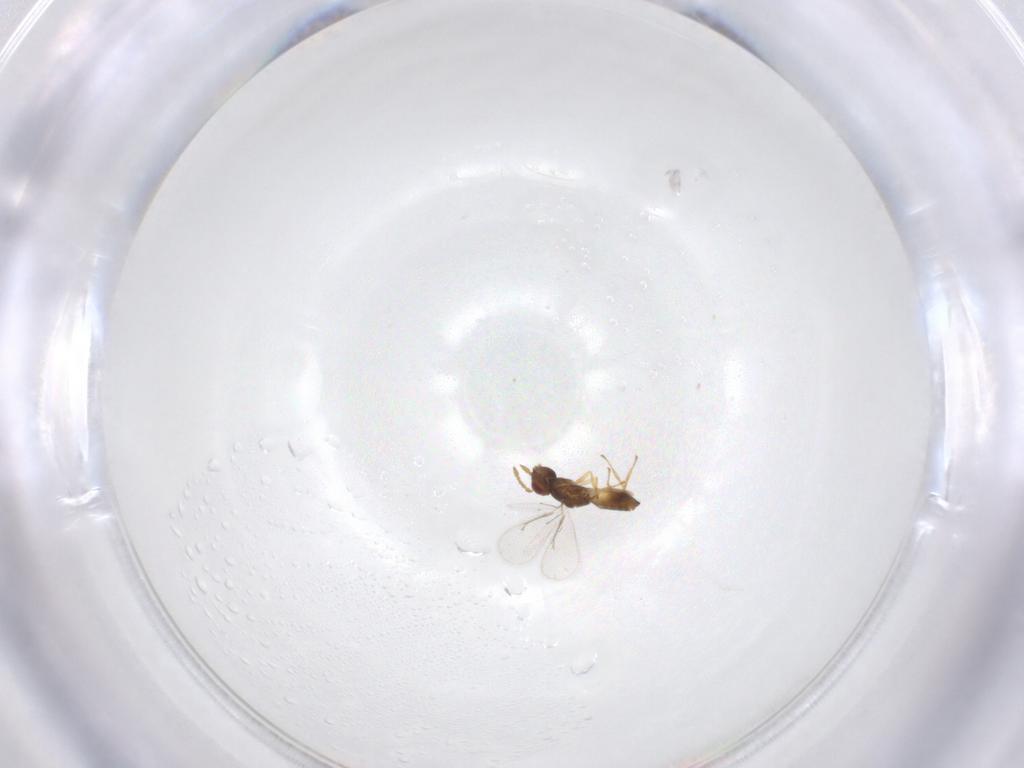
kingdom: Animalia
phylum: Arthropoda
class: Insecta
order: Hymenoptera
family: Eulophidae
